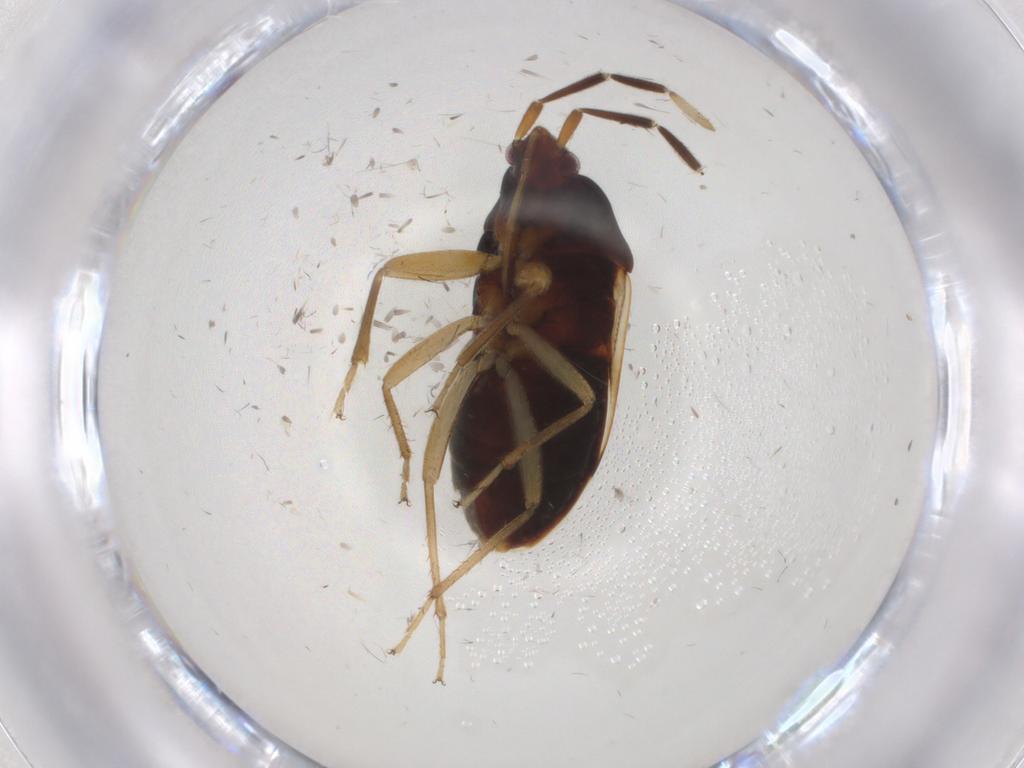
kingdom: Animalia
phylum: Arthropoda
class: Insecta
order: Hemiptera
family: Rhyparochromidae
